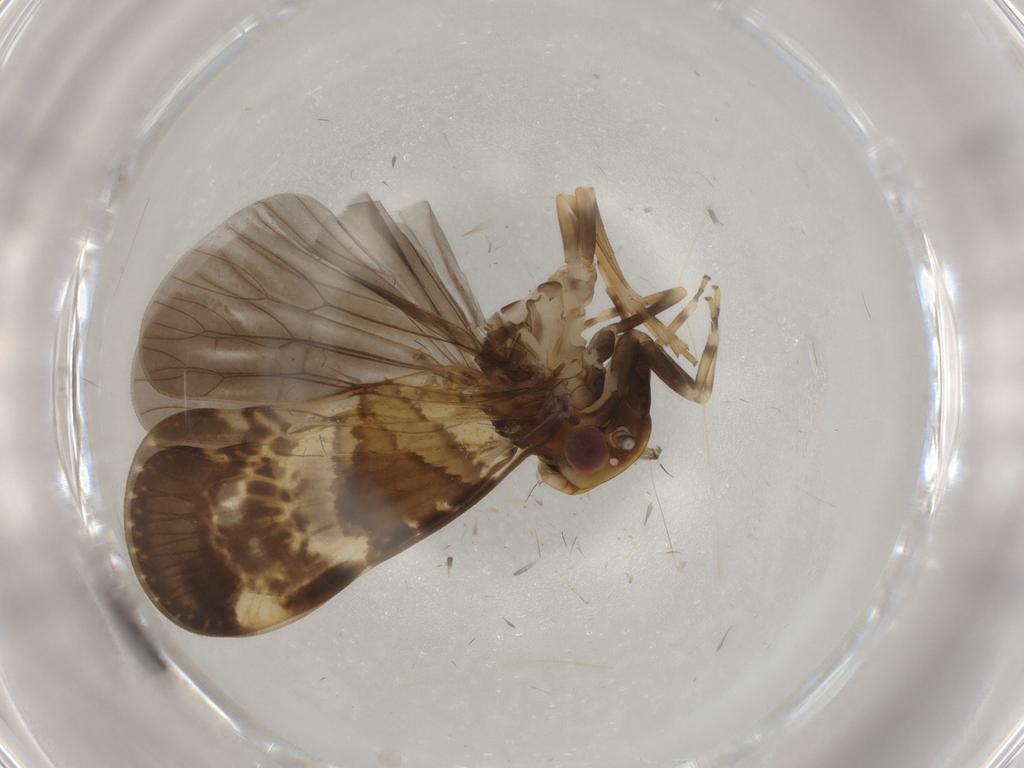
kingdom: Animalia
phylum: Arthropoda
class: Insecta
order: Hemiptera
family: Cixiidae
